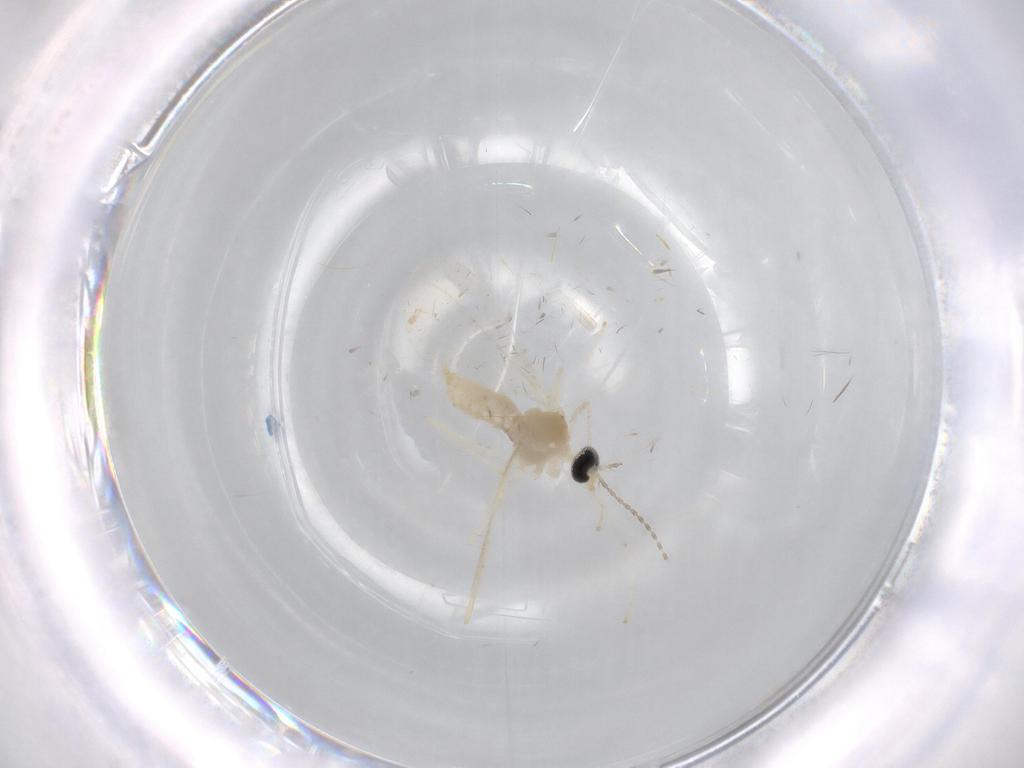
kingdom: Animalia
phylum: Arthropoda
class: Insecta
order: Diptera
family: Cecidomyiidae
